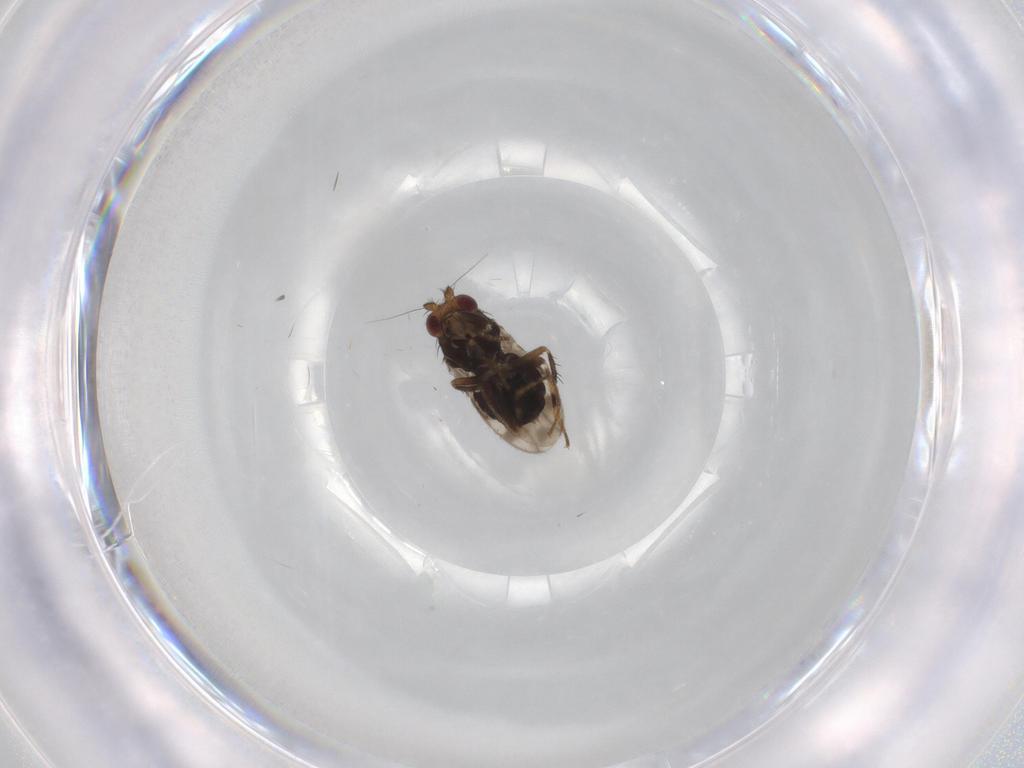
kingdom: Animalia
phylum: Arthropoda
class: Insecta
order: Diptera
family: Sphaeroceridae
